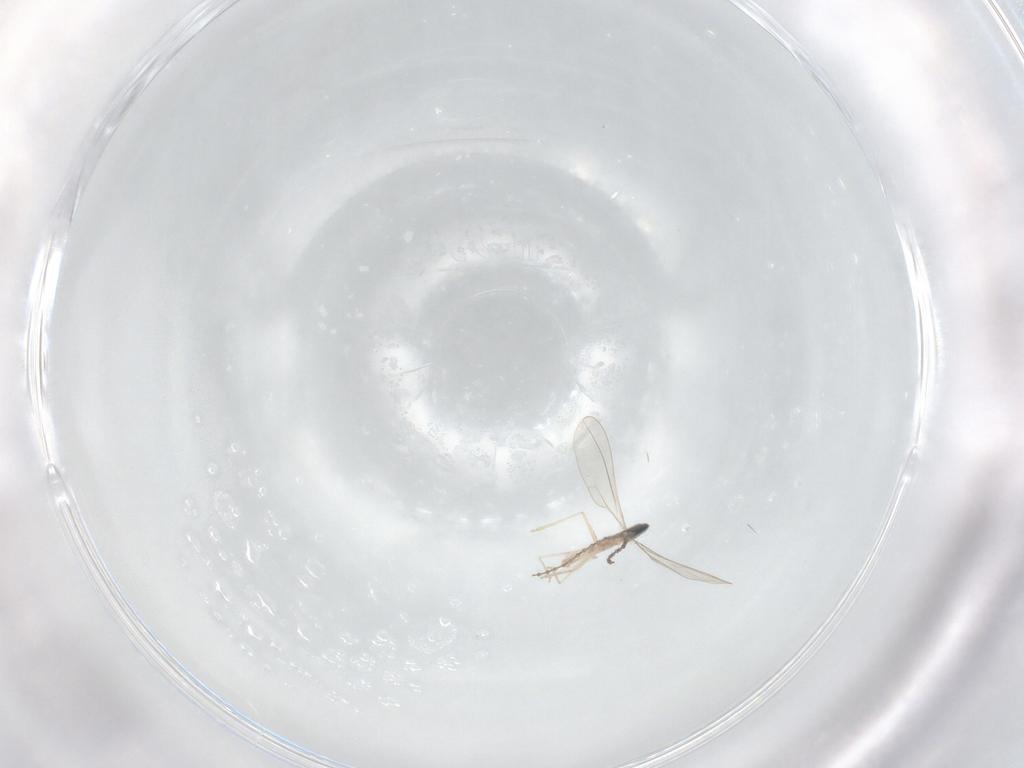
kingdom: Animalia
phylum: Arthropoda
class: Insecta
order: Diptera
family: Cecidomyiidae
